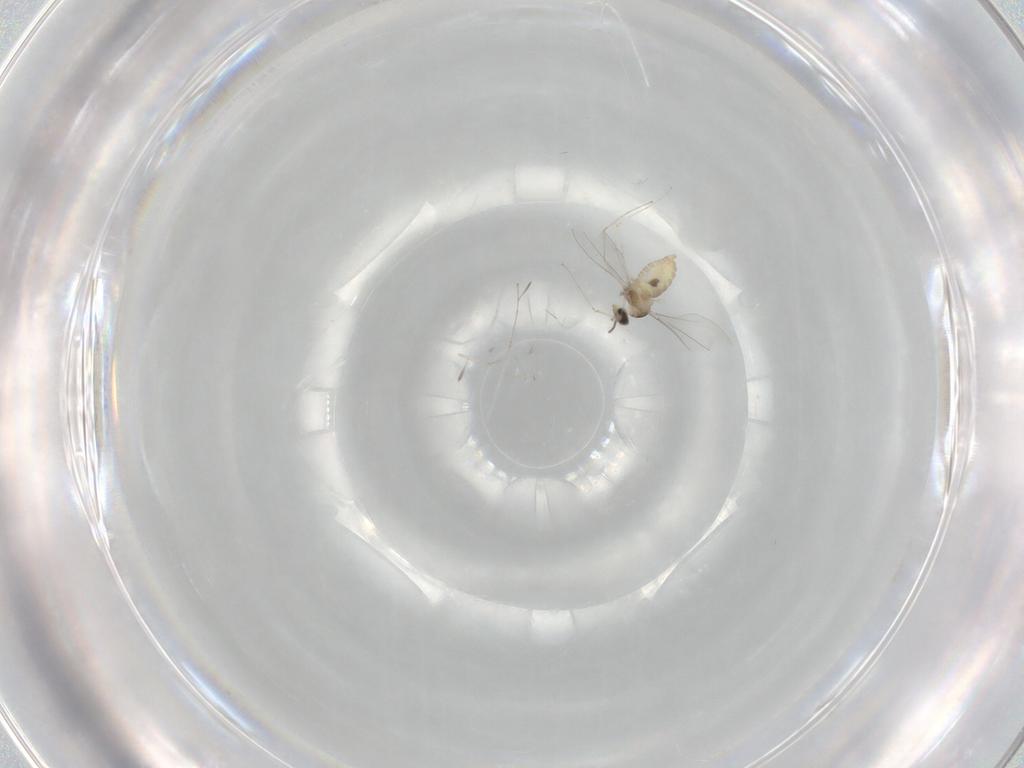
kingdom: Animalia
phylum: Arthropoda
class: Insecta
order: Diptera
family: Cecidomyiidae
